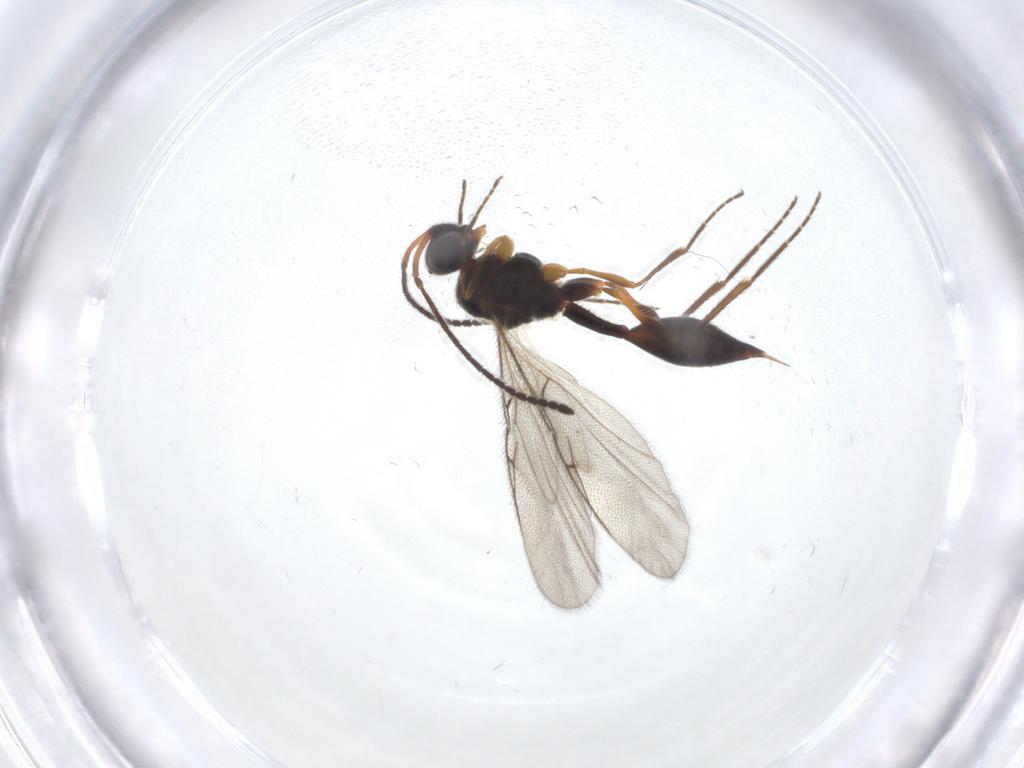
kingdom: Animalia
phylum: Arthropoda
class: Insecta
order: Hymenoptera
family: Diapriidae
